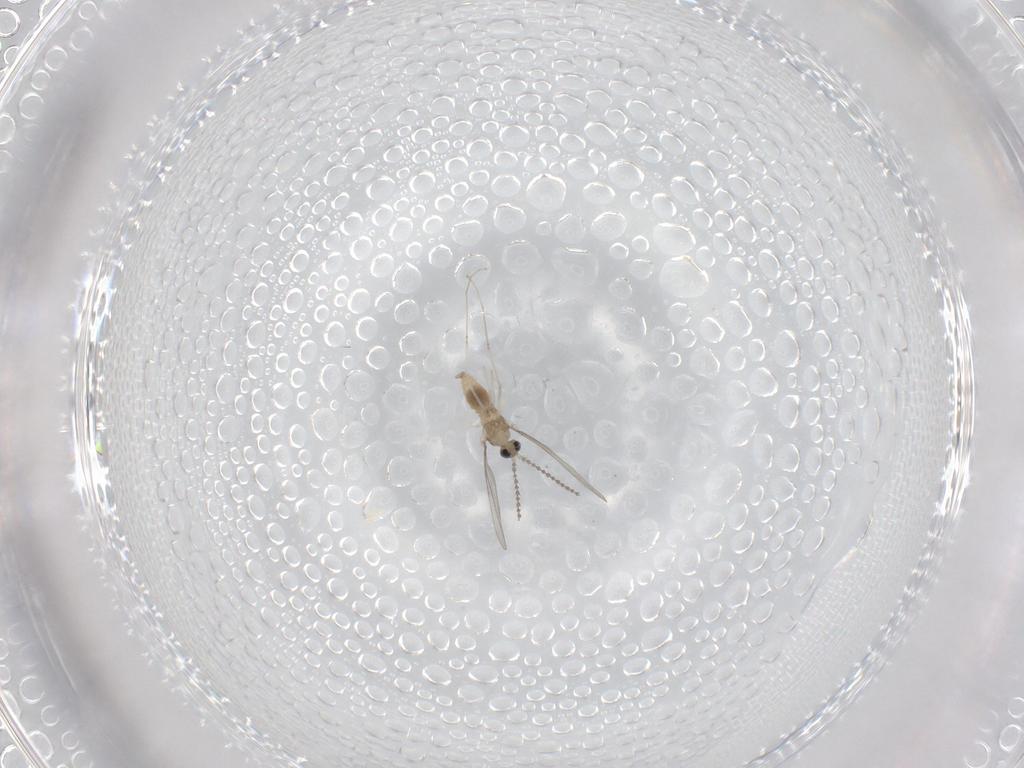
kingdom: Animalia
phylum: Arthropoda
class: Insecta
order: Diptera
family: Cecidomyiidae
